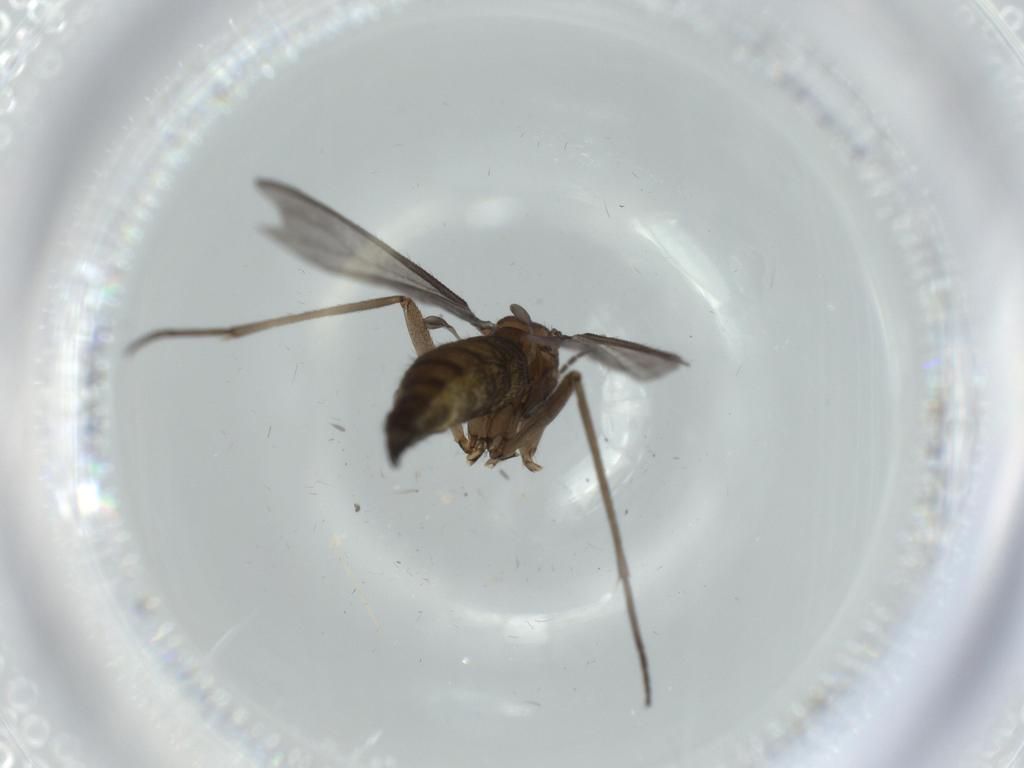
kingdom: Animalia
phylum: Arthropoda
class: Insecta
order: Diptera
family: Sciaridae
